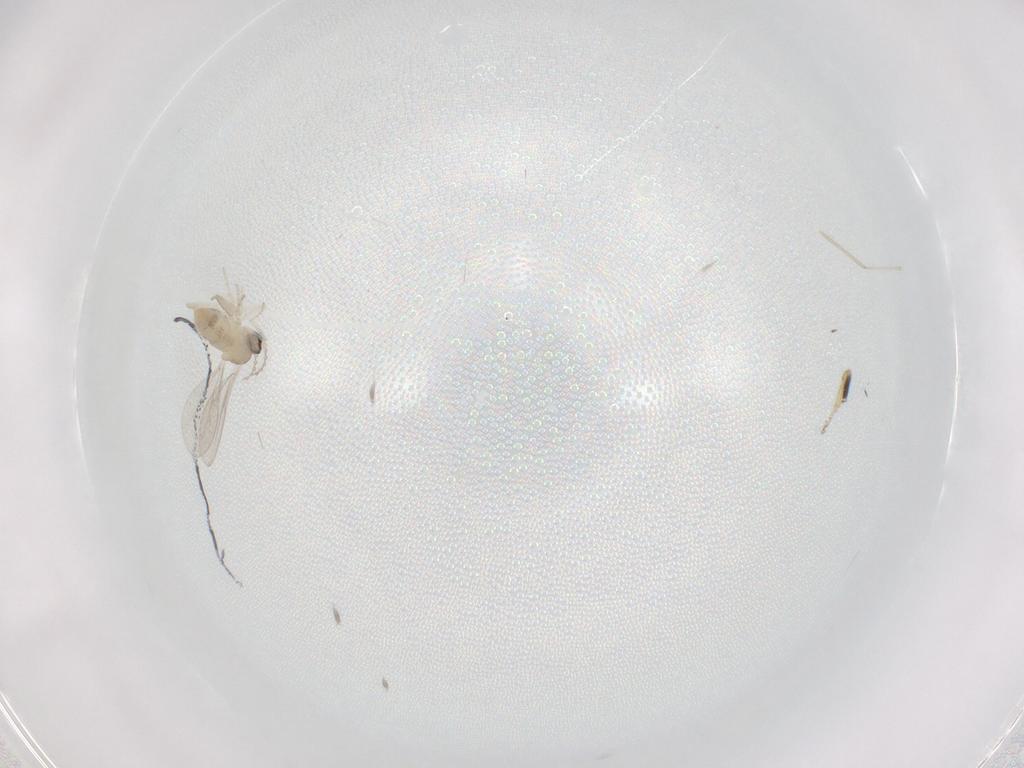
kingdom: Animalia
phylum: Arthropoda
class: Insecta
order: Diptera
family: Cecidomyiidae
